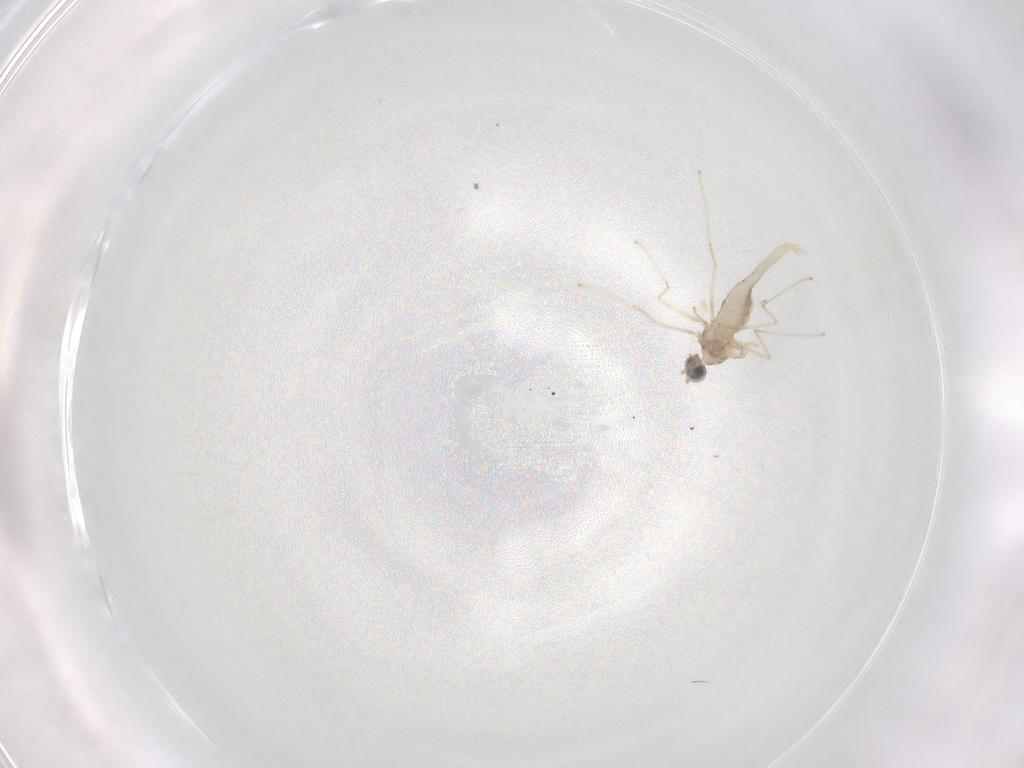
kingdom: Animalia
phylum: Arthropoda
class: Insecta
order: Diptera
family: Cecidomyiidae
